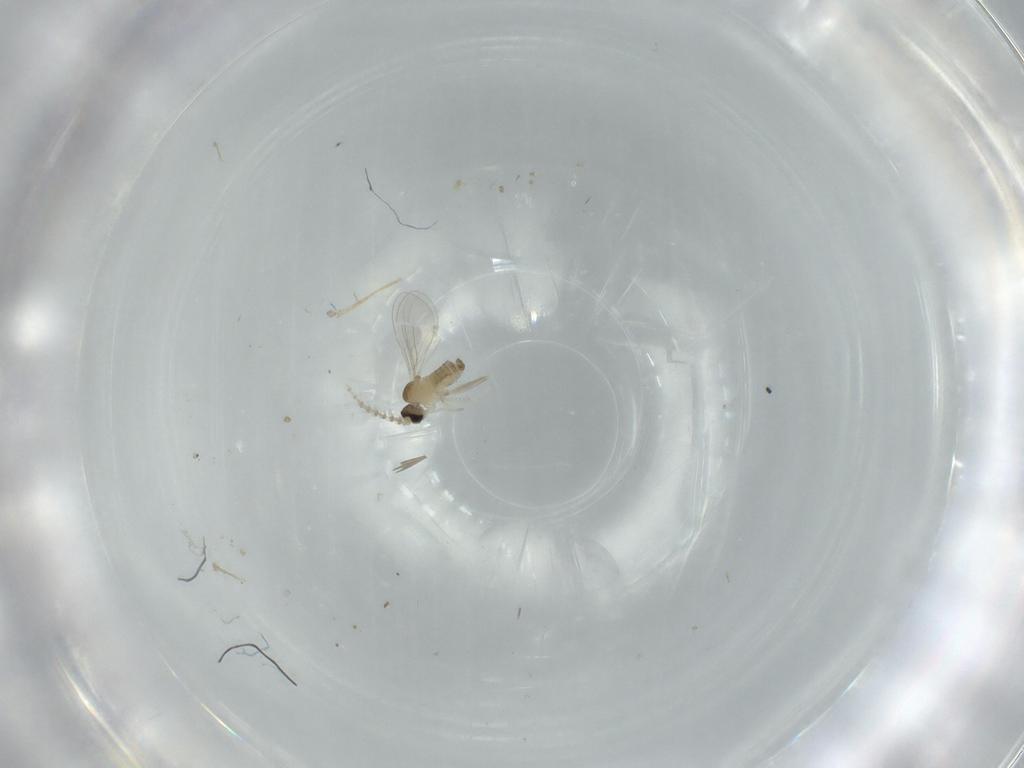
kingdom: Animalia
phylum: Arthropoda
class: Insecta
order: Diptera
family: Cecidomyiidae
